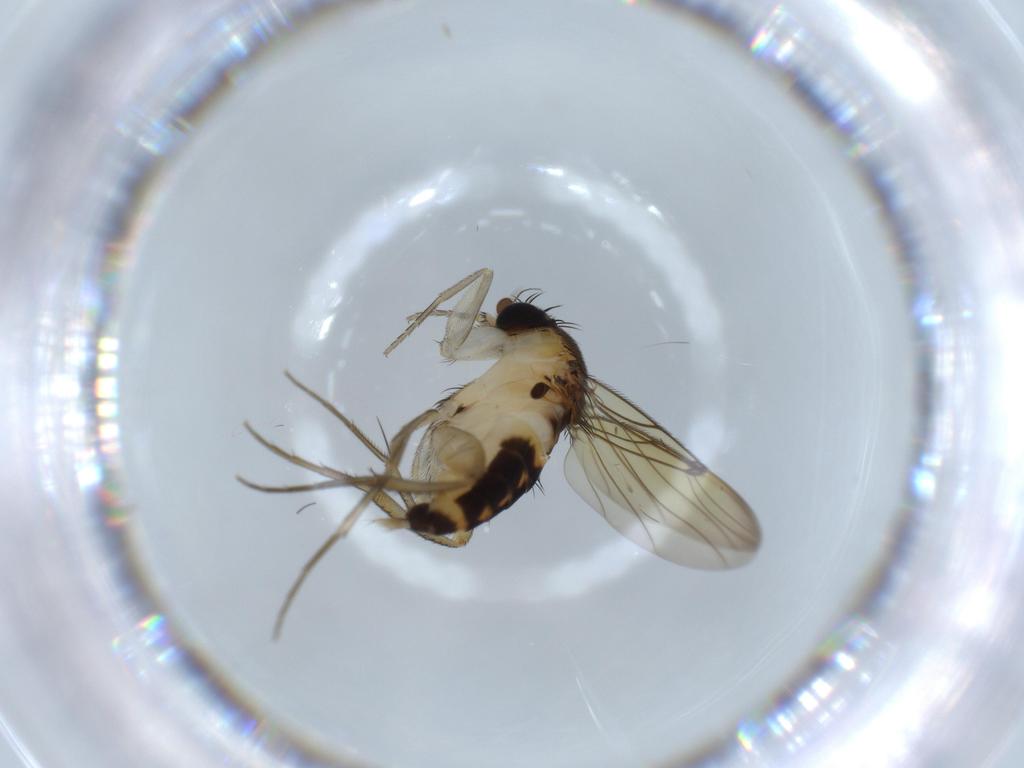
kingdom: Animalia
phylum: Arthropoda
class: Insecta
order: Diptera
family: Phoridae
